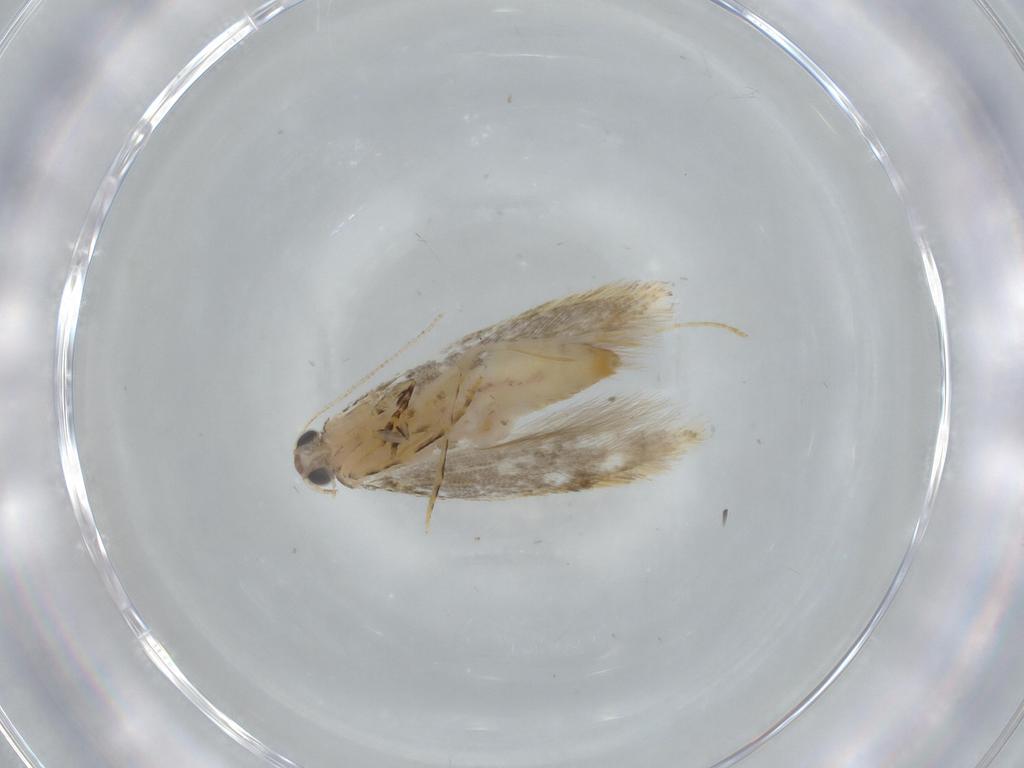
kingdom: Animalia
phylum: Arthropoda
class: Insecta
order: Lepidoptera
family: Tineidae
